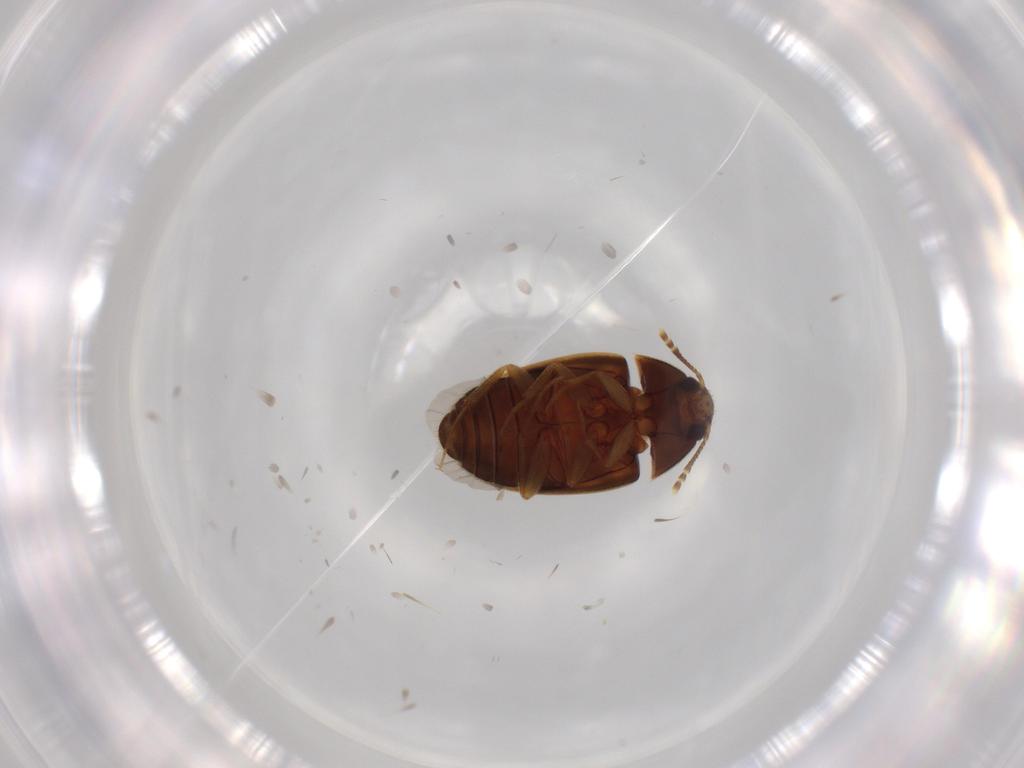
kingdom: Animalia
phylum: Arthropoda
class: Insecta
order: Coleoptera
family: Mycetophagidae
